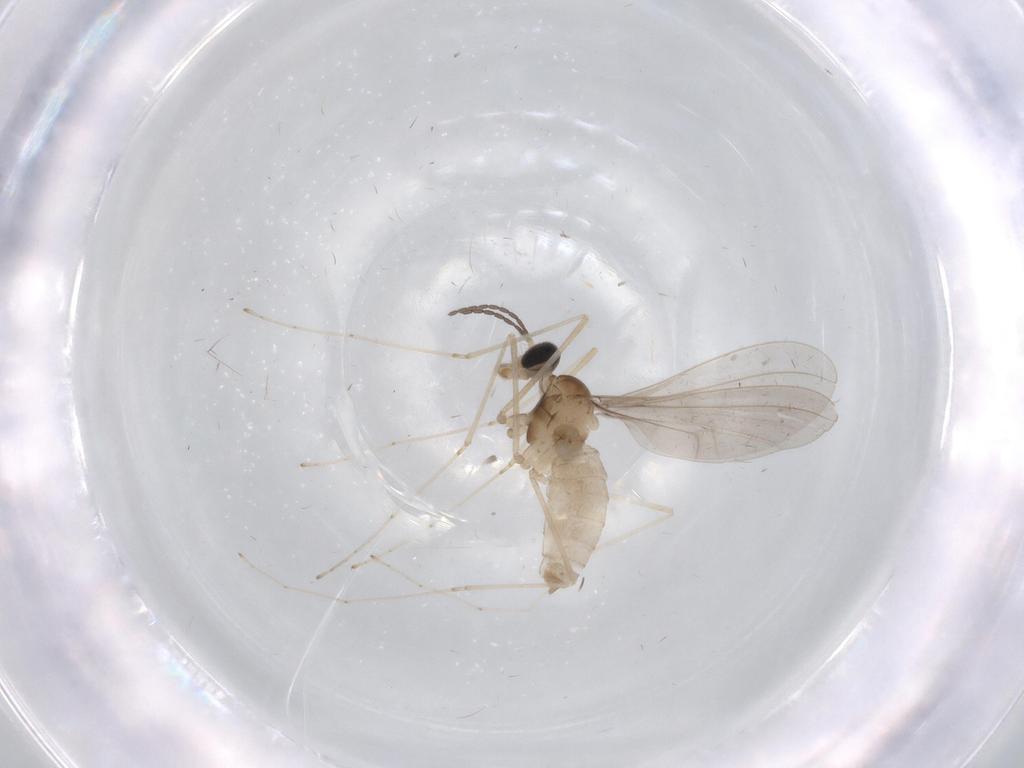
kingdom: Animalia
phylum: Arthropoda
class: Insecta
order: Diptera
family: Cecidomyiidae
